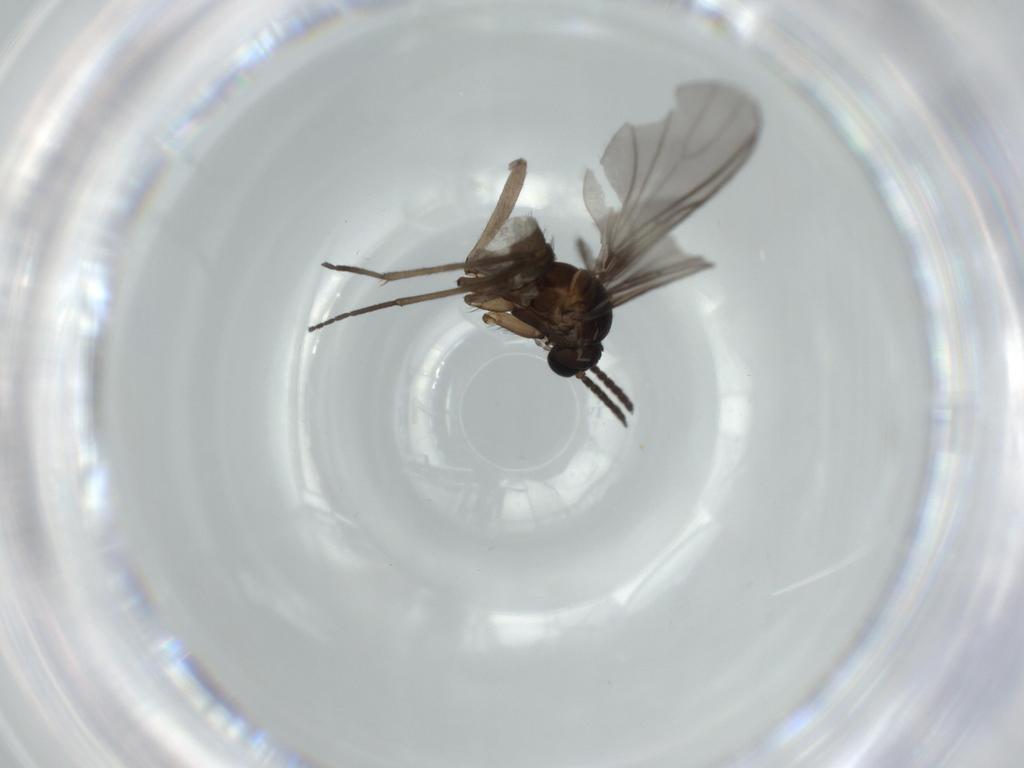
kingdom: Animalia
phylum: Arthropoda
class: Insecta
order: Diptera
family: Sciaridae
